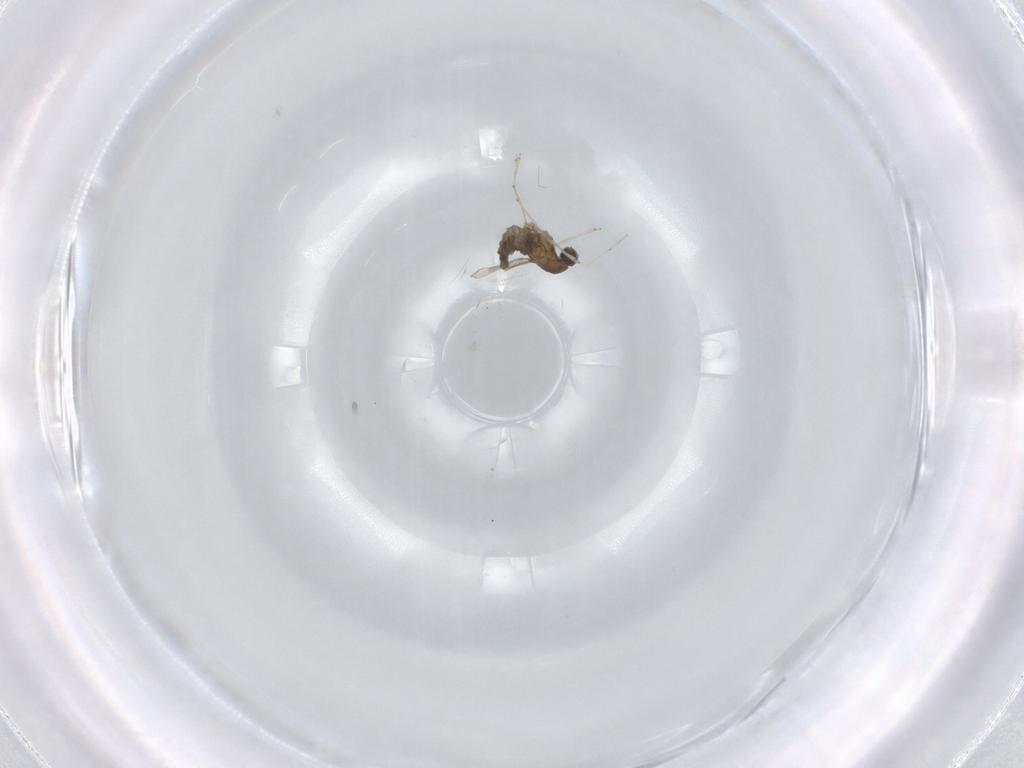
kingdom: Animalia
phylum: Arthropoda
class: Insecta
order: Diptera
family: Cecidomyiidae
